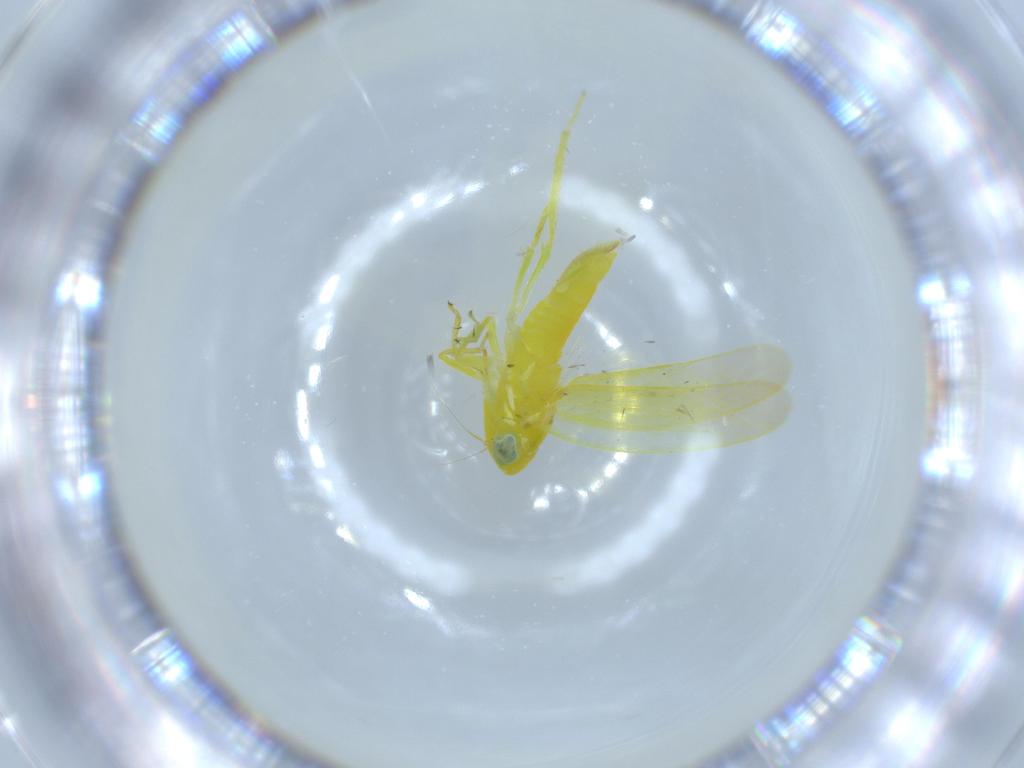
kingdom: Animalia
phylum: Arthropoda
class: Insecta
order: Hemiptera
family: Cicadellidae
